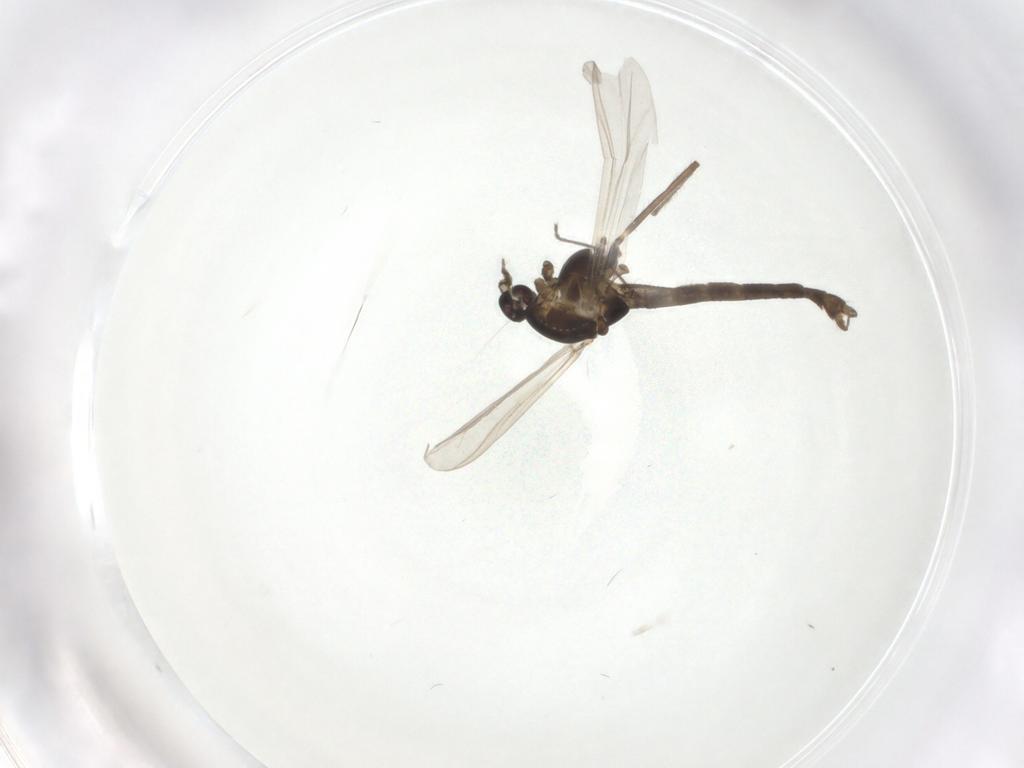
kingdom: Animalia
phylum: Arthropoda
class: Insecta
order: Diptera
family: Chironomidae
